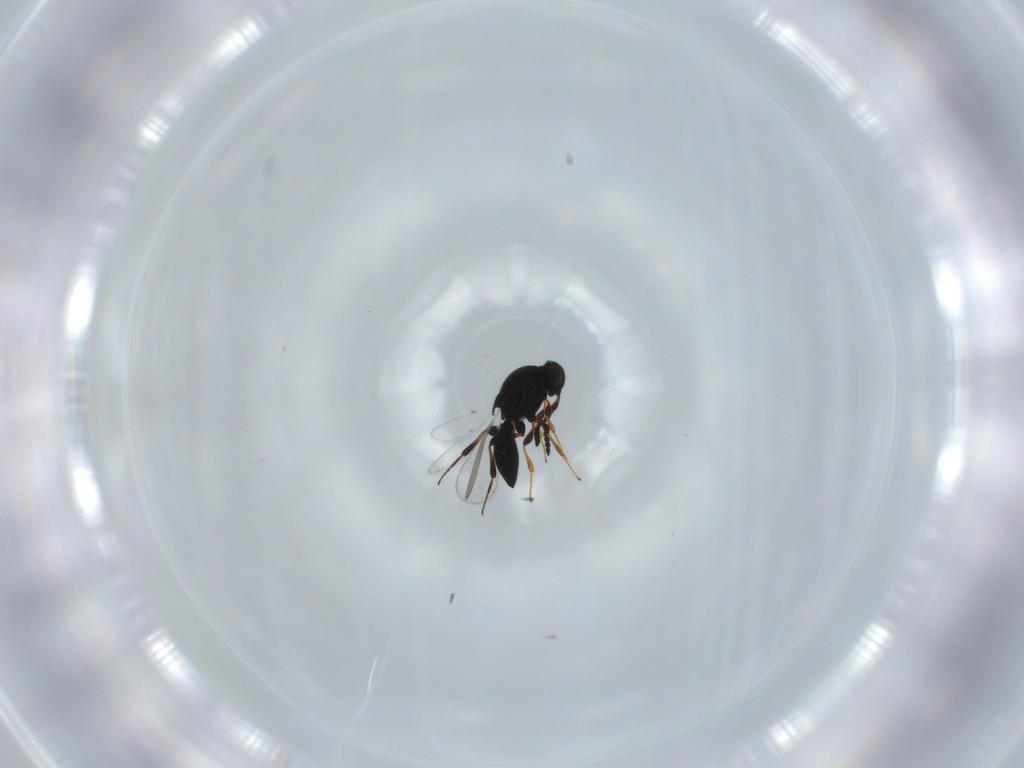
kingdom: Animalia
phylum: Arthropoda
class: Insecta
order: Hymenoptera
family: Platygastridae
